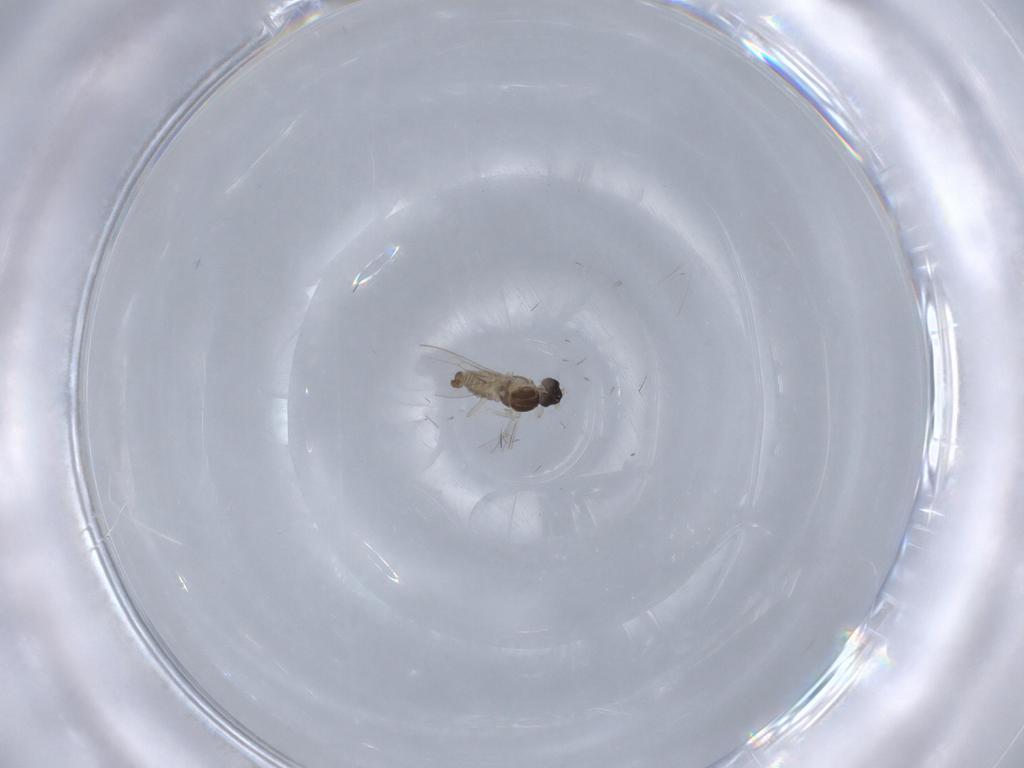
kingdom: Animalia
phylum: Arthropoda
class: Insecta
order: Diptera
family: Cecidomyiidae
